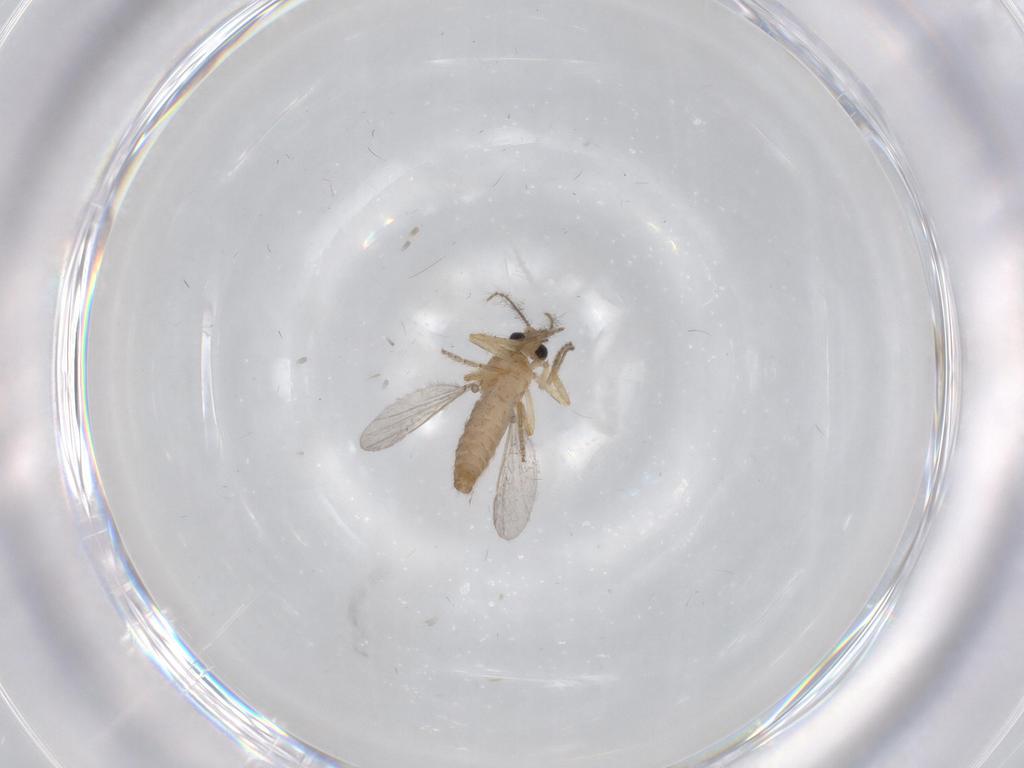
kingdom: Animalia
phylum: Arthropoda
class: Insecta
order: Diptera
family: Ceratopogonidae
